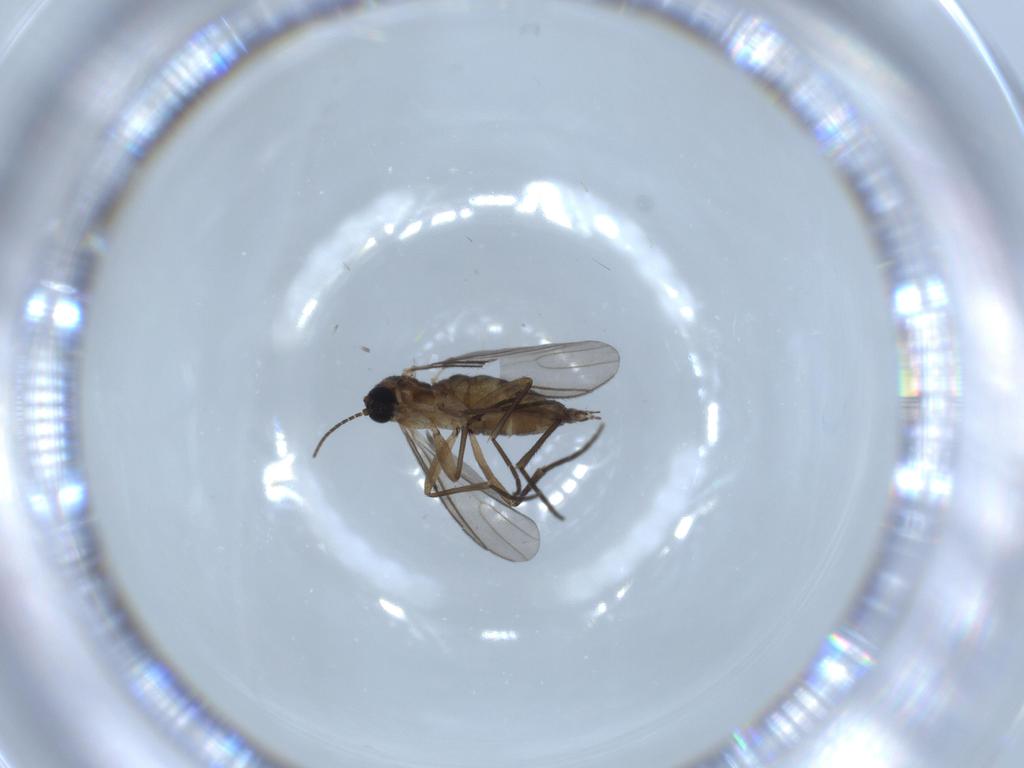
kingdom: Animalia
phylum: Arthropoda
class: Insecta
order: Diptera
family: Sciaridae
